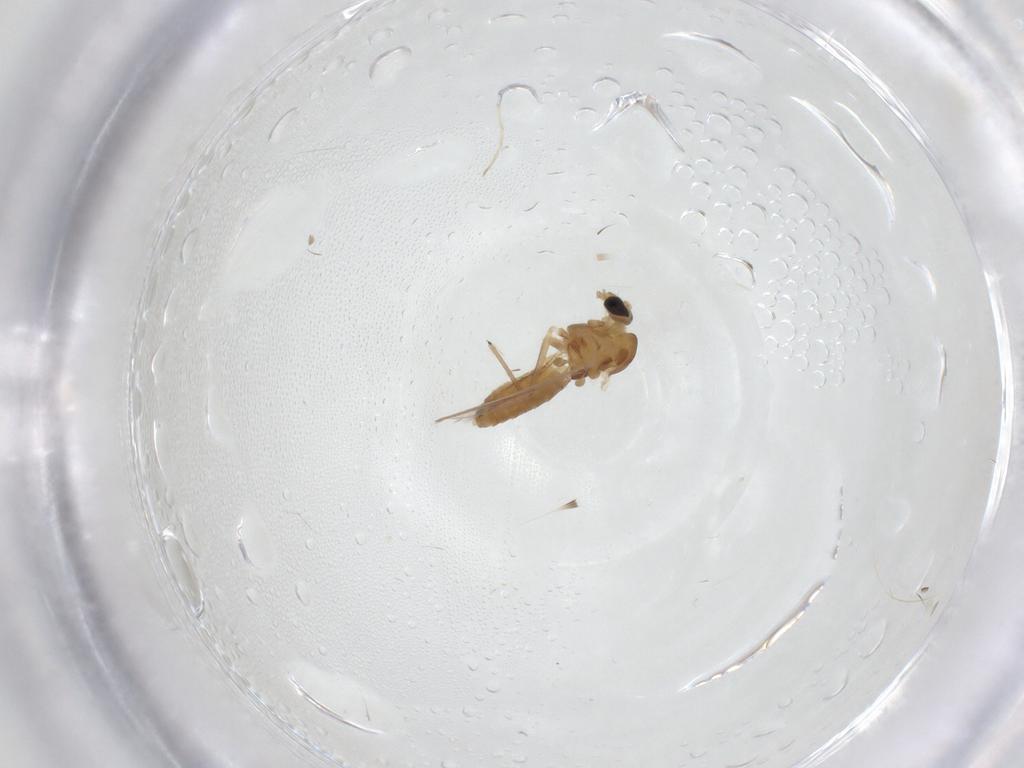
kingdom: Animalia
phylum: Arthropoda
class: Insecta
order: Diptera
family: Chironomidae
